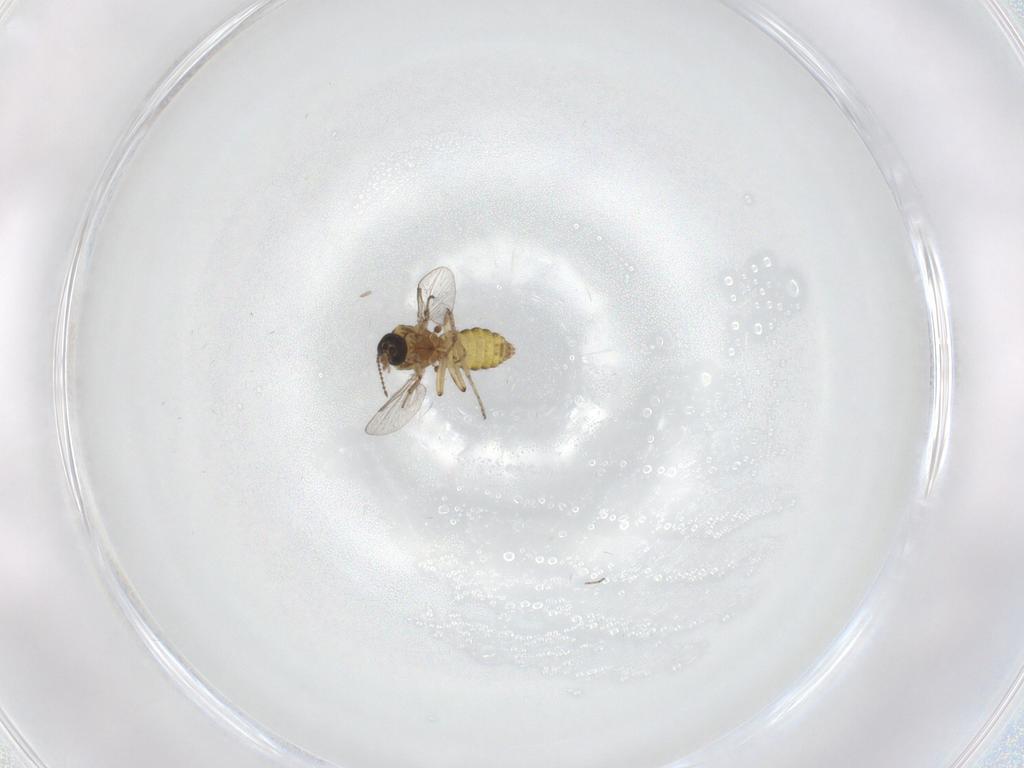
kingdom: Animalia
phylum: Arthropoda
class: Insecta
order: Diptera
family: Ceratopogonidae
